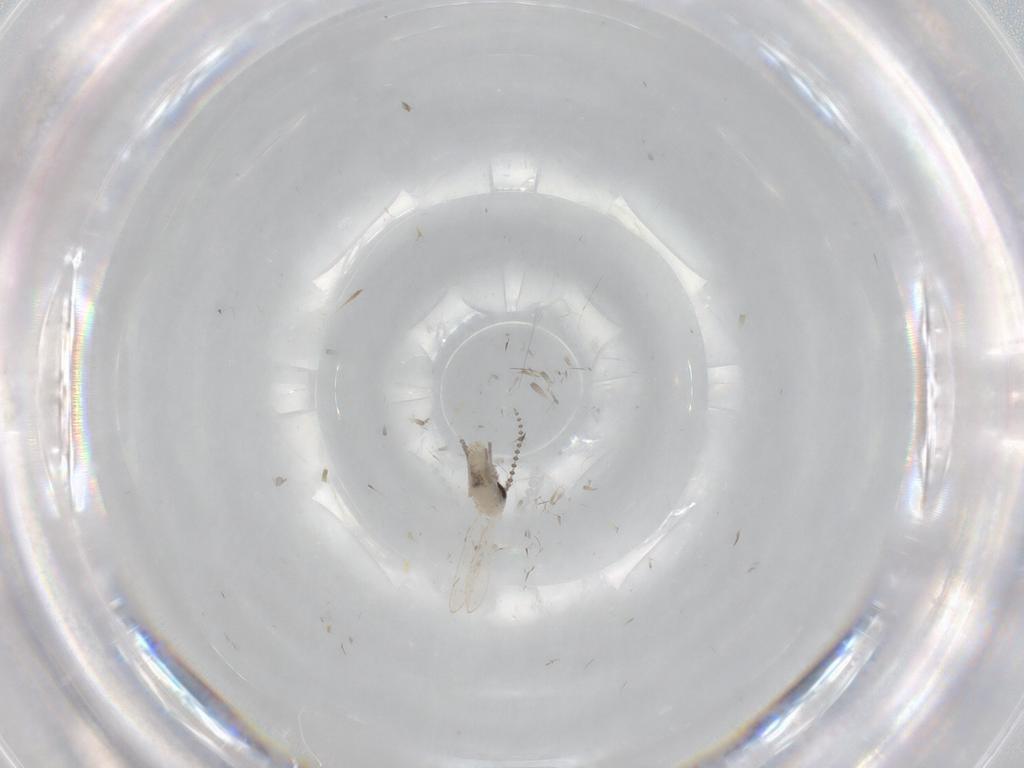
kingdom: Animalia
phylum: Arthropoda
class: Insecta
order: Diptera
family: Psychodidae
